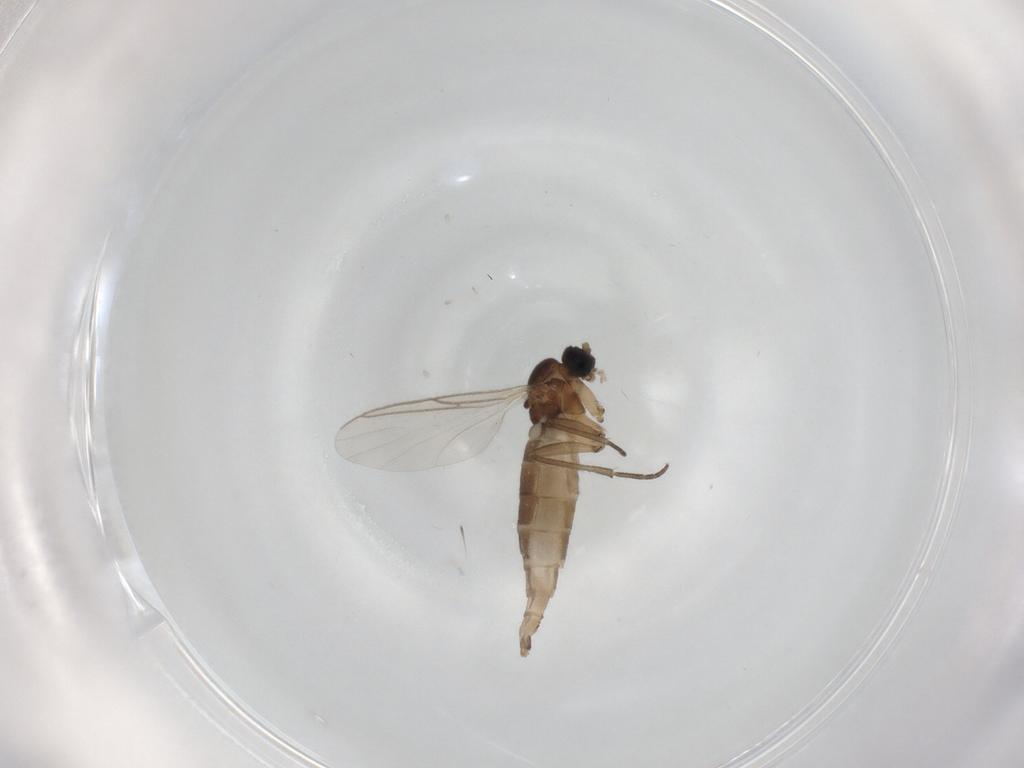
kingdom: Animalia
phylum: Arthropoda
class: Insecta
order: Diptera
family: Sciaridae
